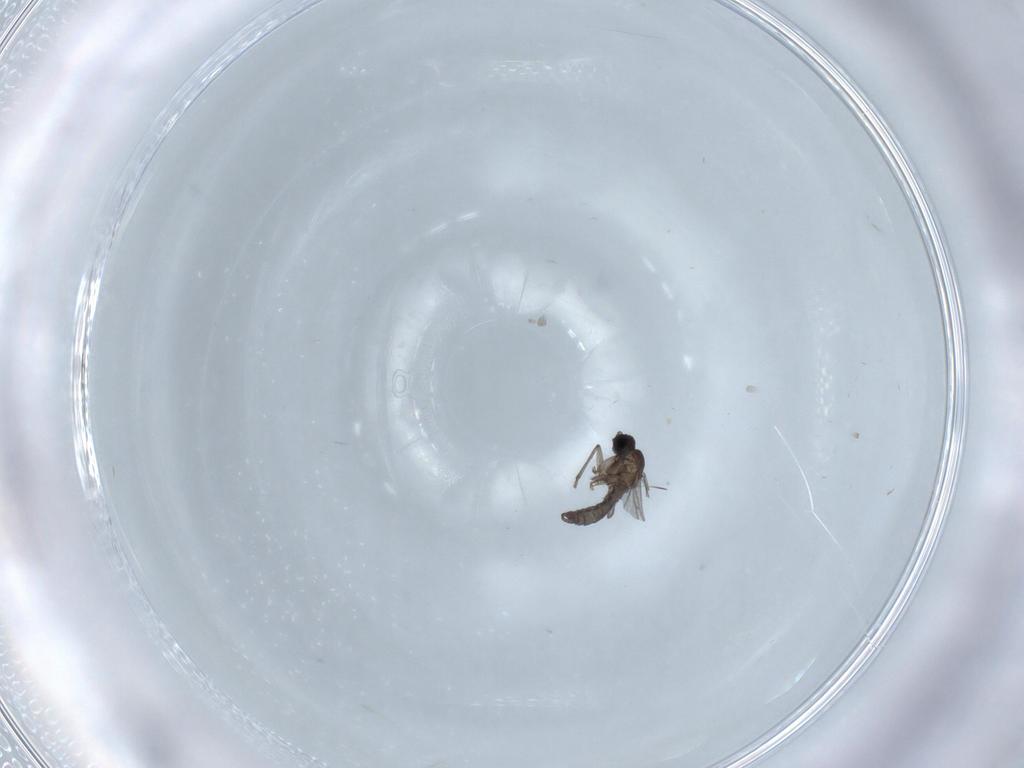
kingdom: Animalia
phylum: Arthropoda
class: Insecta
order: Diptera
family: Sciaridae
